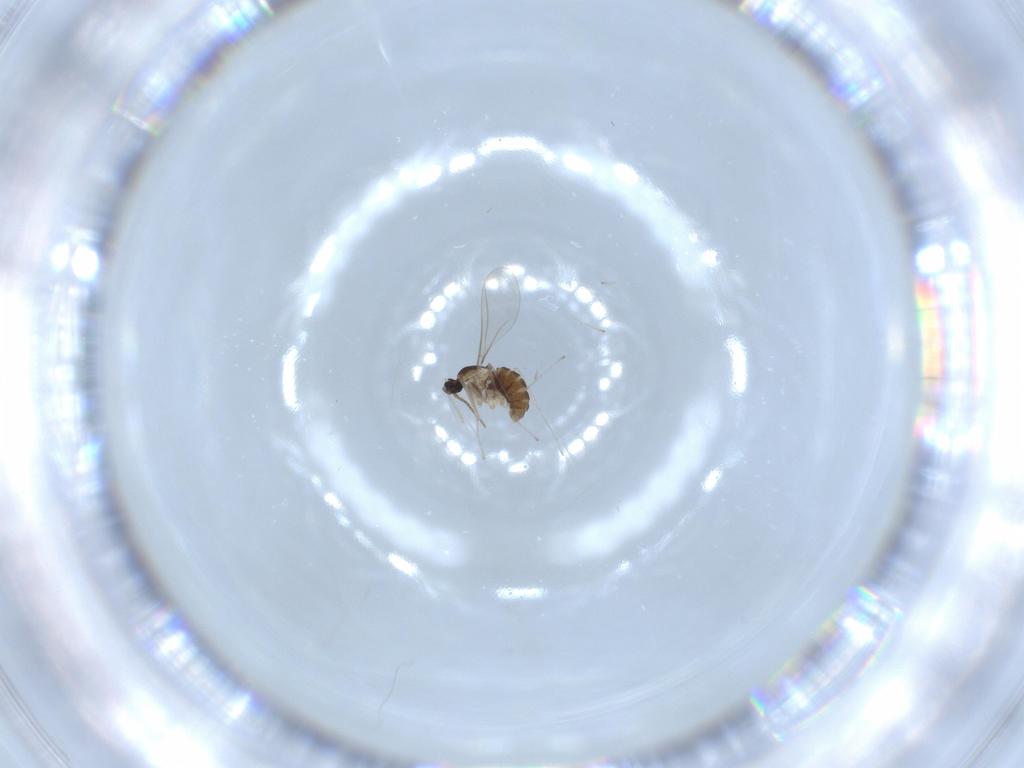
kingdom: Animalia
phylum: Arthropoda
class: Insecta
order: Diptera
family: Cecidomyiidae
